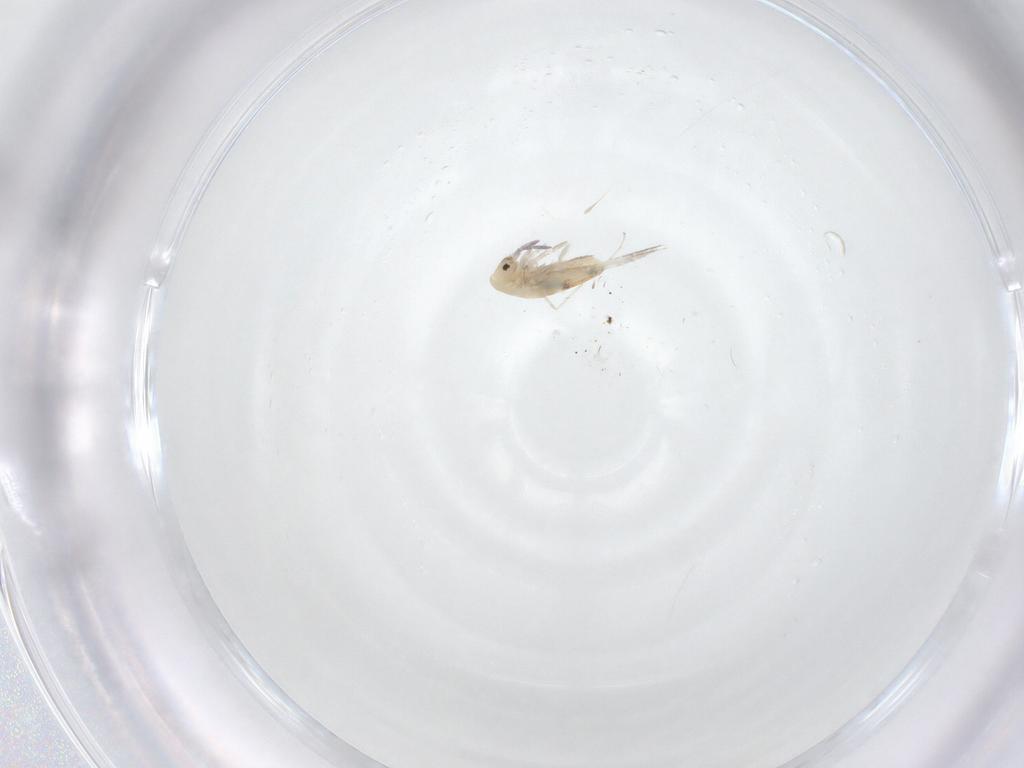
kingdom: Animalia
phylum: Arthropoda
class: Collembola
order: Entomobryomorpha
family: Entomobryidae
